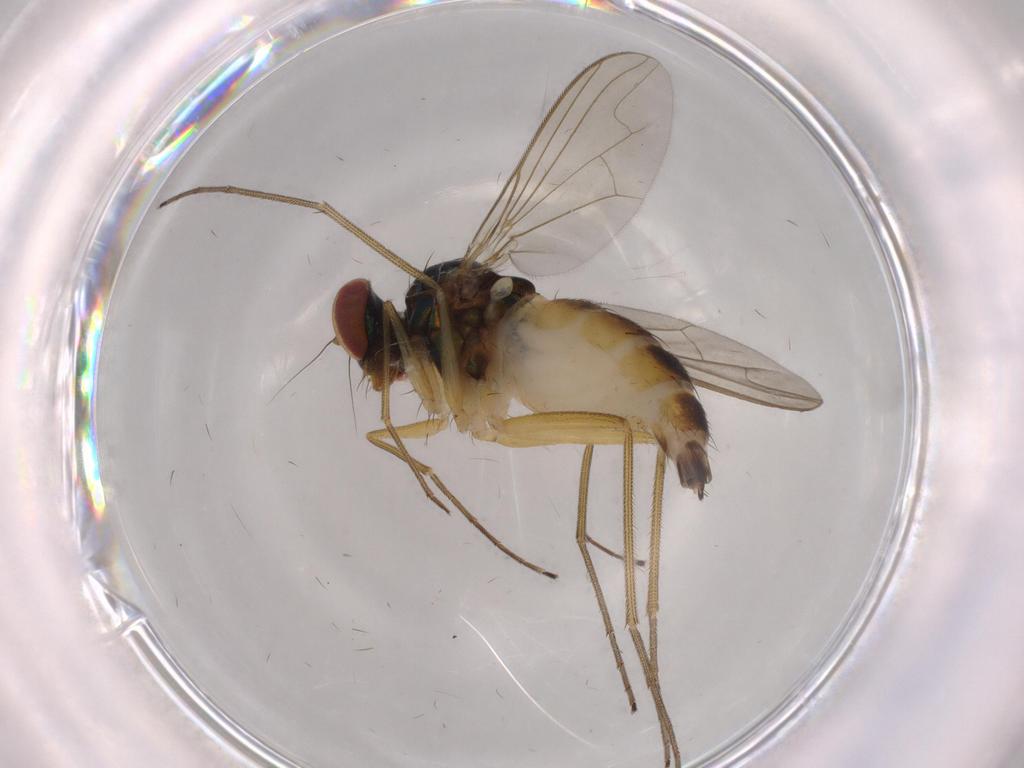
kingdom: Animalia
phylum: Arthropoda
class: Insecta
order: Diptera
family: Dolichopodidae
